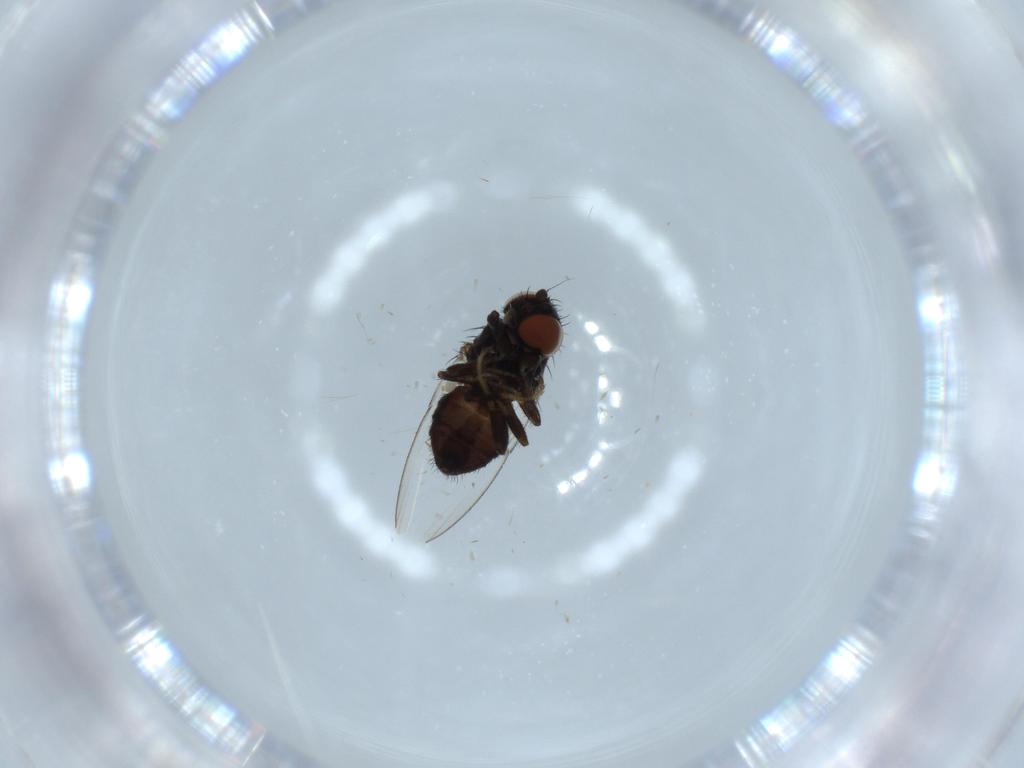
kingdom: Animalia
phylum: Arthropoda
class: Insecta
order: Diptera
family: Milichiidae
